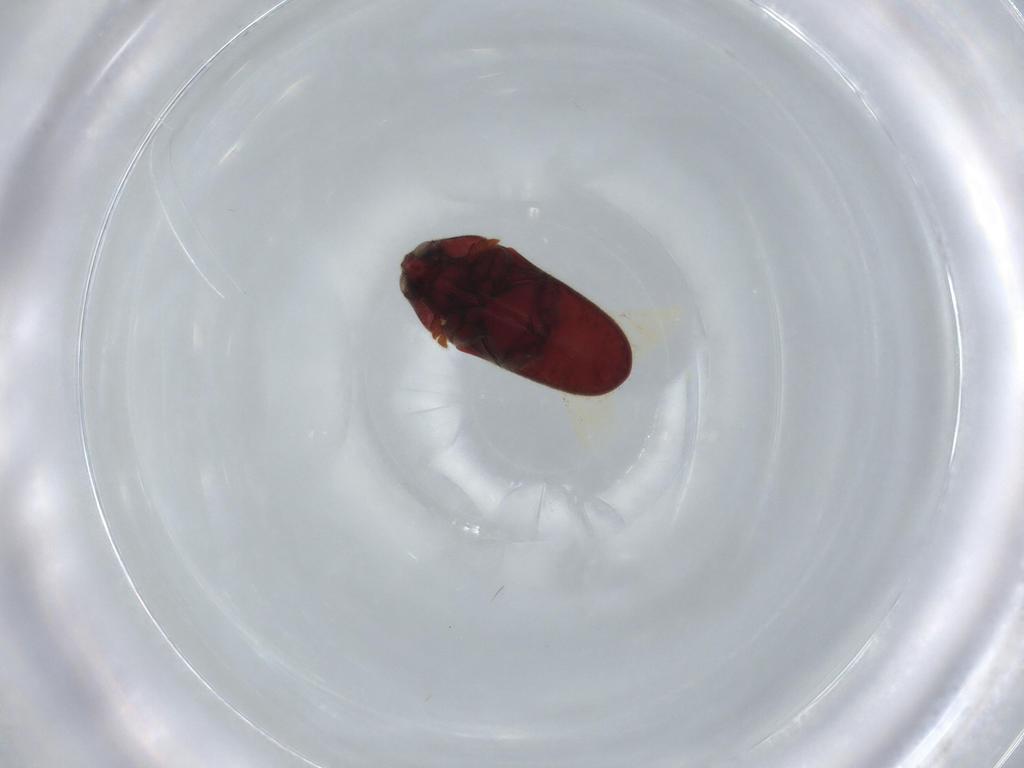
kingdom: Animalia
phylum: Arthropoda
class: Insecta
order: Coleoptera
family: Throscidae
